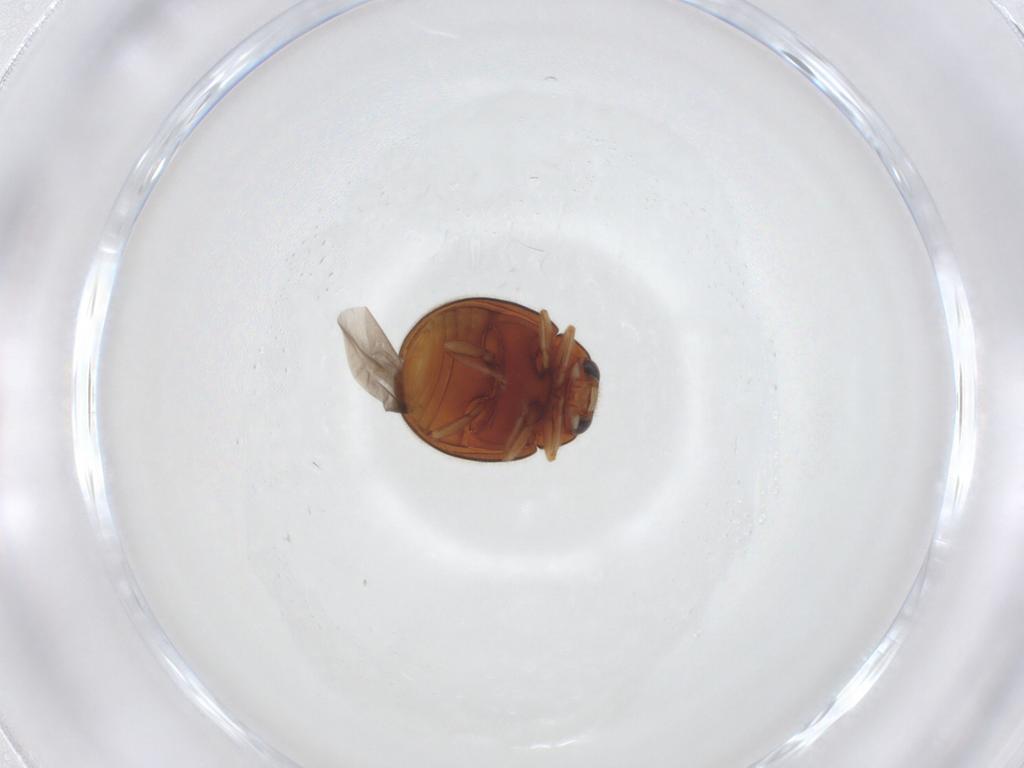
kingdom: Animalia
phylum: Arthropoda
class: Insecta
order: Coleoptera
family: Coccinellidae
